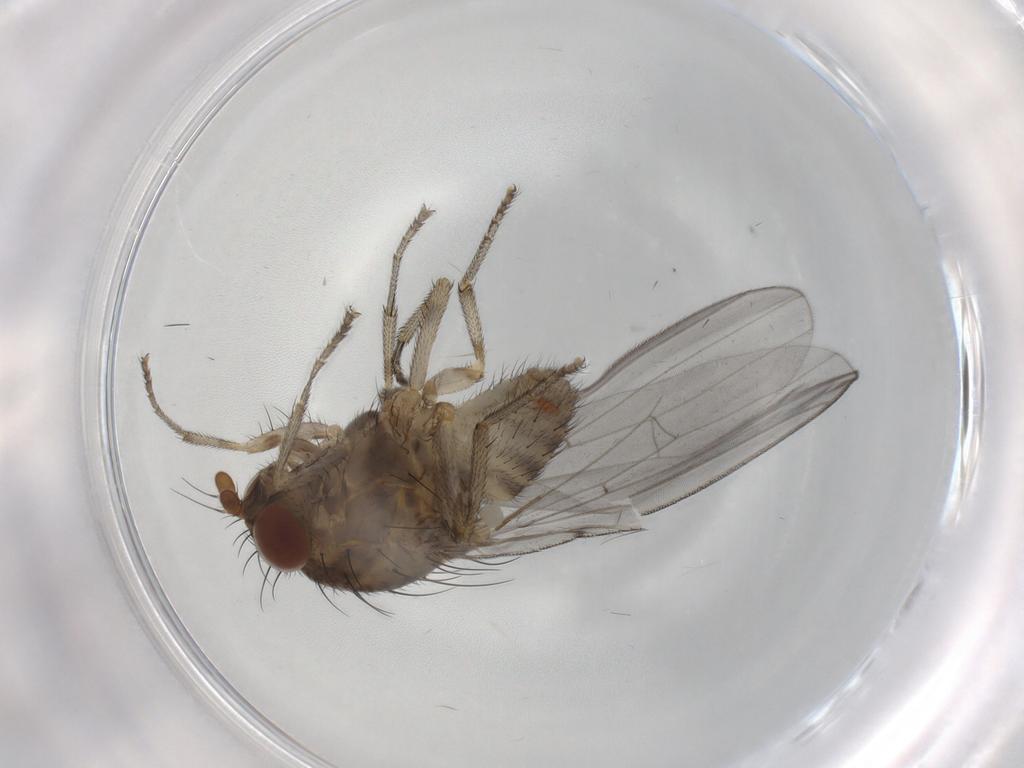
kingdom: Animalia
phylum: Arthropoda
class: Insecta
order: Diptera
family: Lauxaniidae
